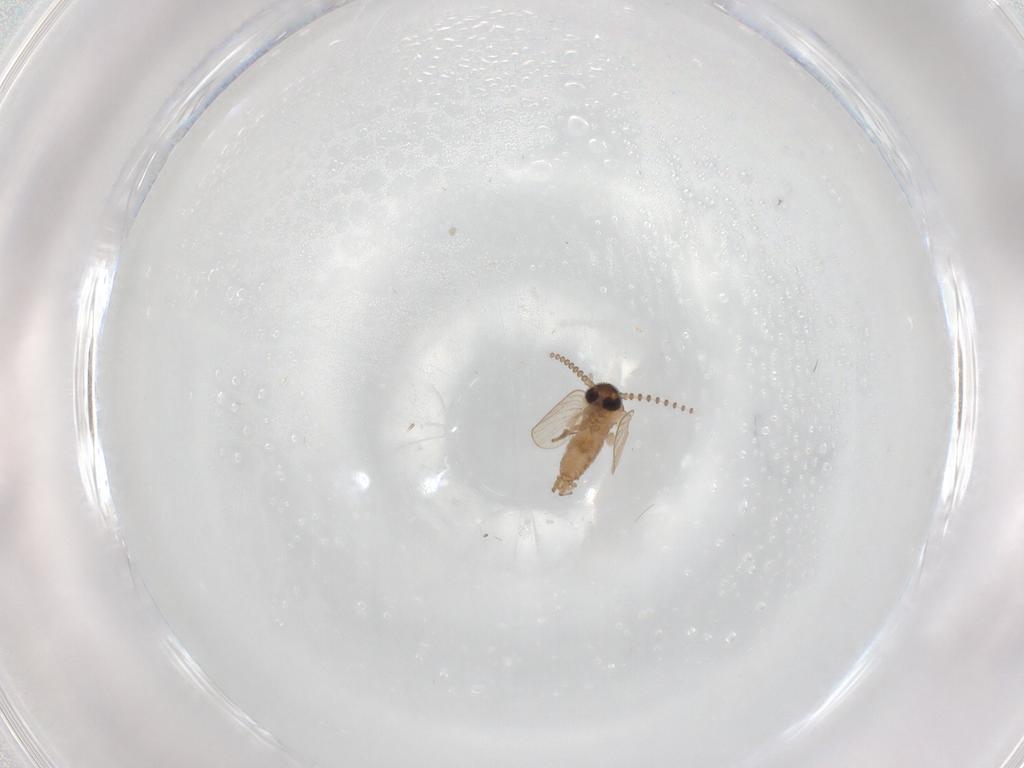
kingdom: Animalia
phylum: Arthropoda
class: Insecta
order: Diptera
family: Psychodidae
